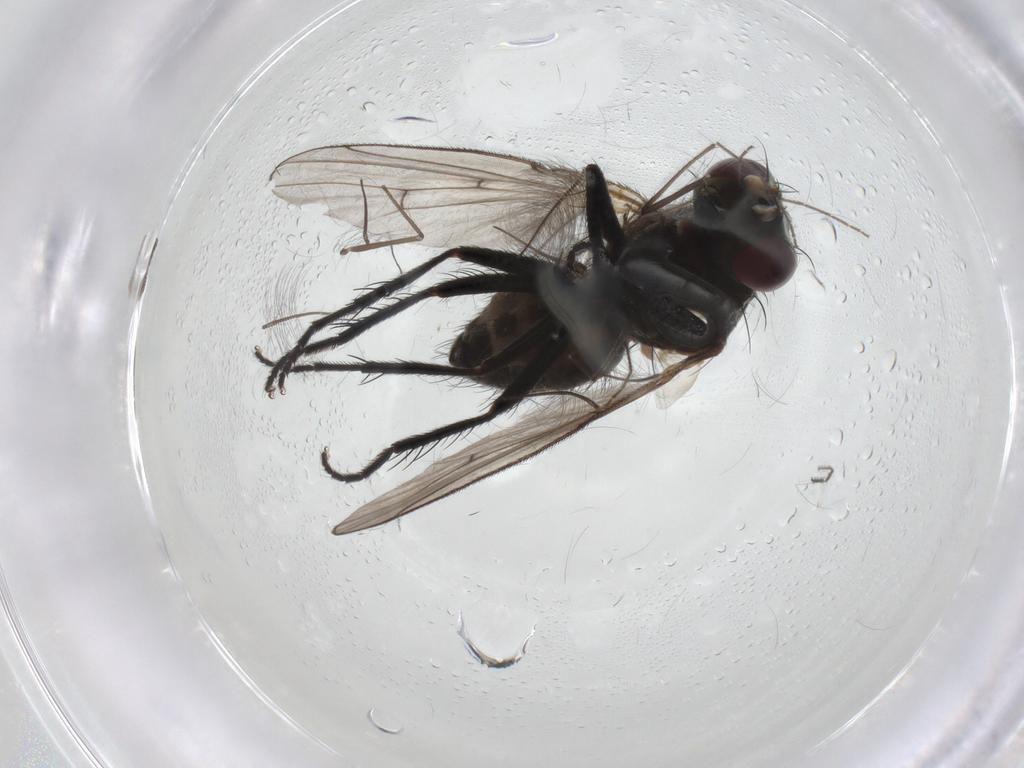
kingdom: Animalia
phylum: Arthropoda
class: Insecta
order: Diptera
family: Muscidae
